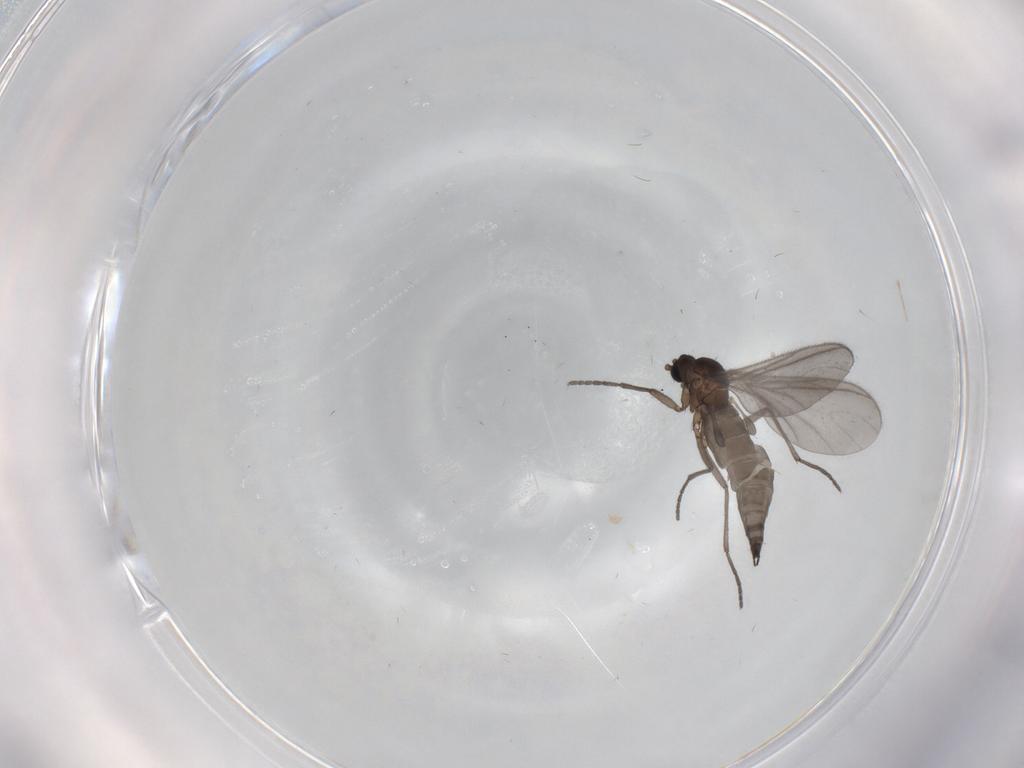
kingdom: Animalia
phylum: Arthropoda
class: Insecta
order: Diptera
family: Sciaridae
